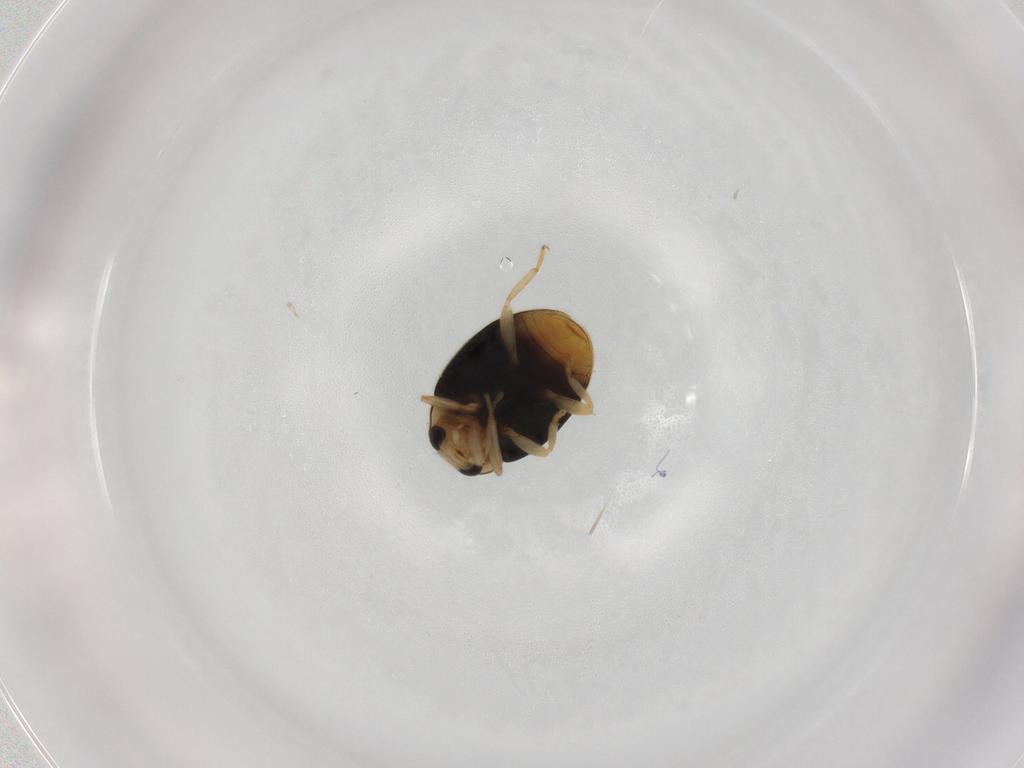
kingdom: Animalia
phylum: Arthropoda
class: Insecta
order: Coleoptera
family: Coccinellidae
